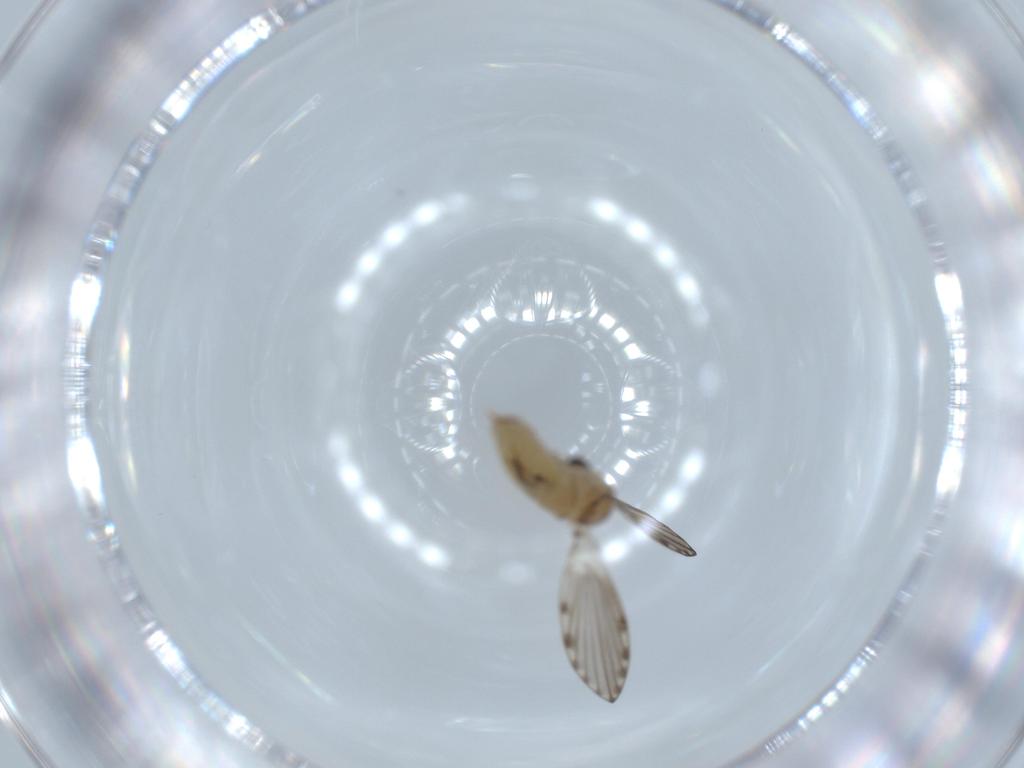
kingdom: Animalia
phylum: Arthropoda
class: Insecta
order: Diptera
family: Psychodidae
